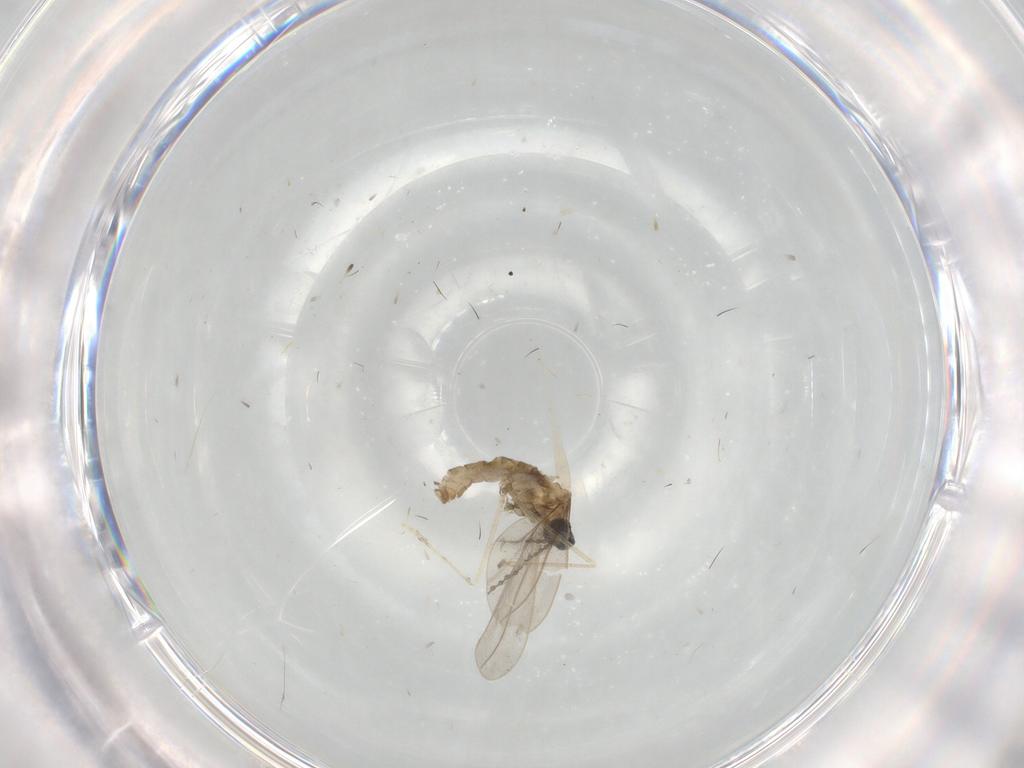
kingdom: Animalia
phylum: Arthropoda
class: Insecta
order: Diptera
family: Cecidomyiidae
